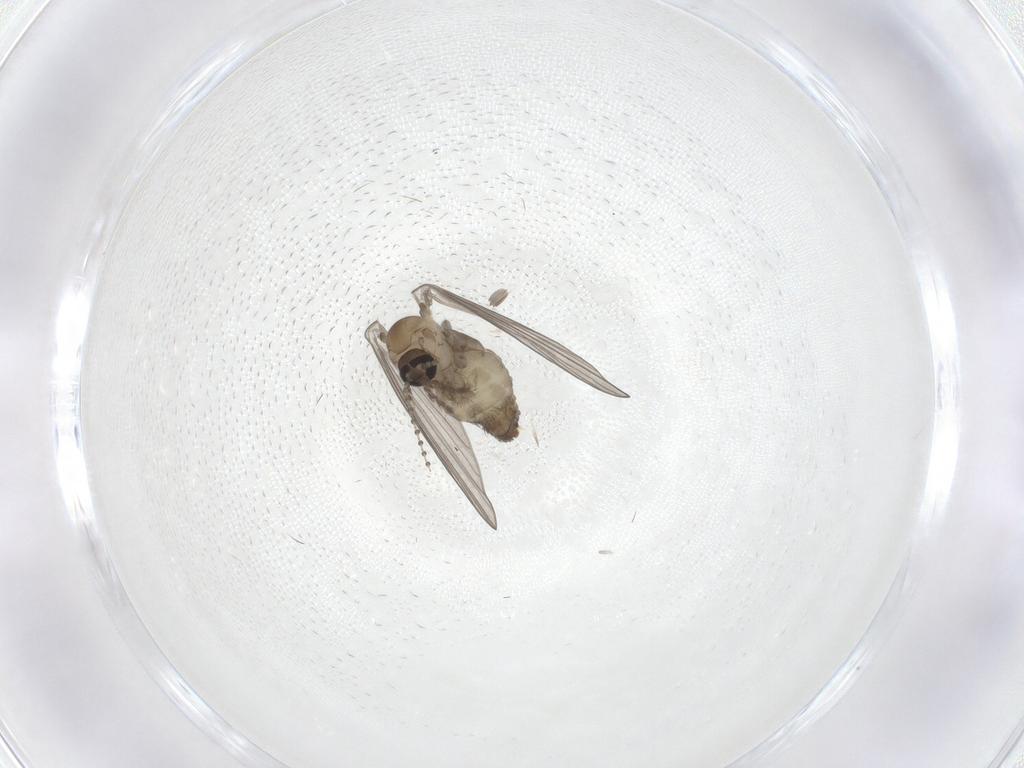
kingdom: Animalia
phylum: Arthropoda
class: Insecta
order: Diptera
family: Psychodidae
